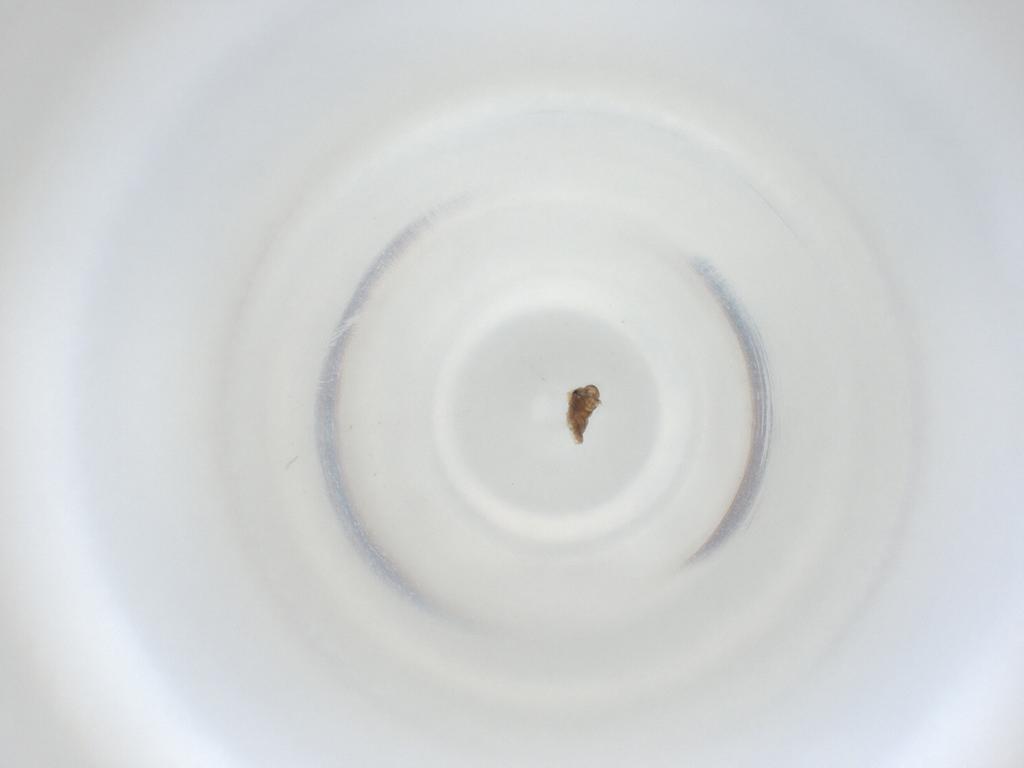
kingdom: Animalia
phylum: Arthropoda
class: Insecta
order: Diptera
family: Cecidomyiidae
